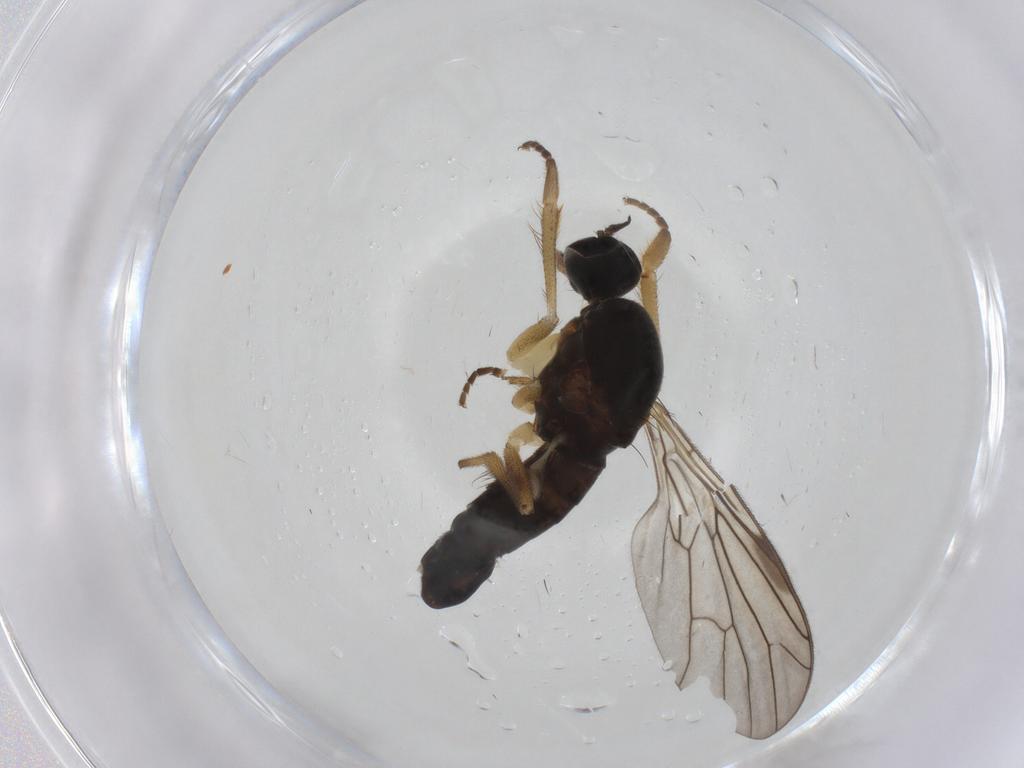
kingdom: Animalia
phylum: Arthropoda
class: Insecta
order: Diptera
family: Empididae
